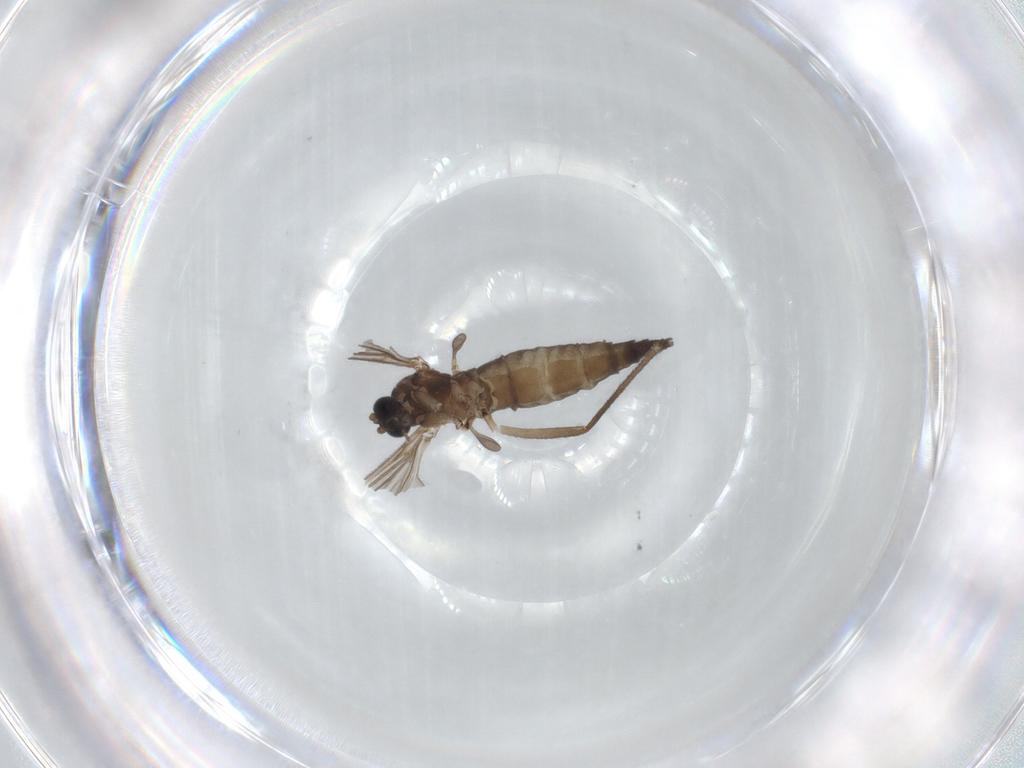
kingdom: Animalia
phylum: Arthropoda
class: Insecta
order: Diptera
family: Sciaridae
